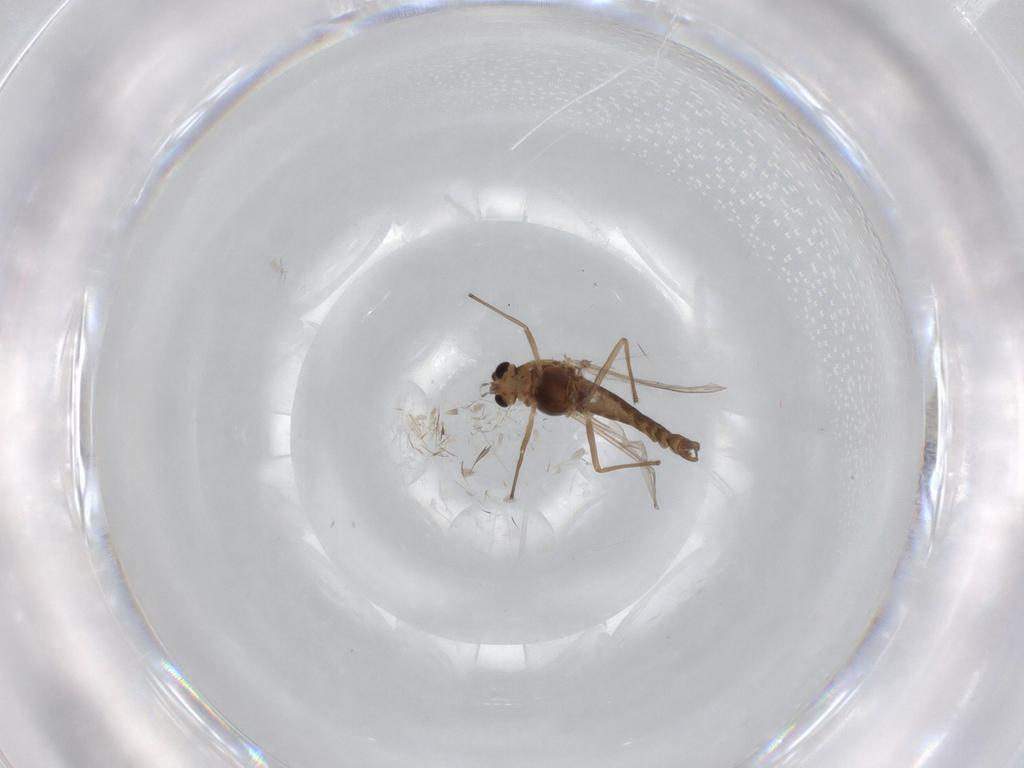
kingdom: Animalia
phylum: Arthropoda
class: Insecta
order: Diptera
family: Chironomidae
